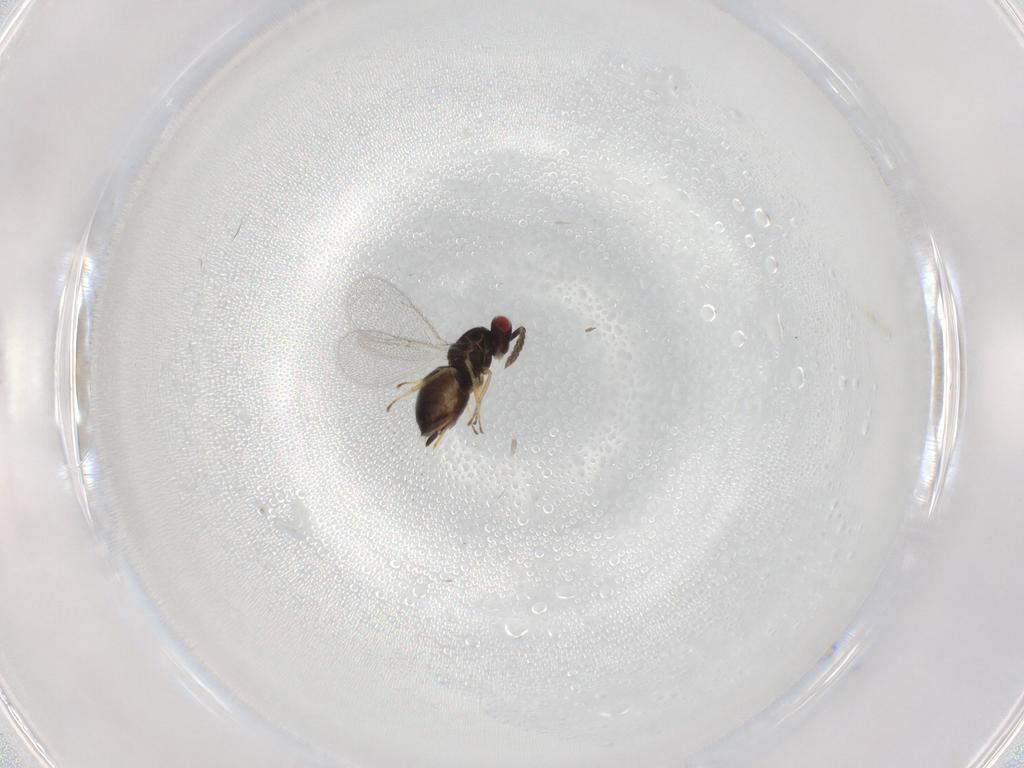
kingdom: Animalia
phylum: Arthropoda
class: Insecta
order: Hymenoptera
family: Eulophidae
